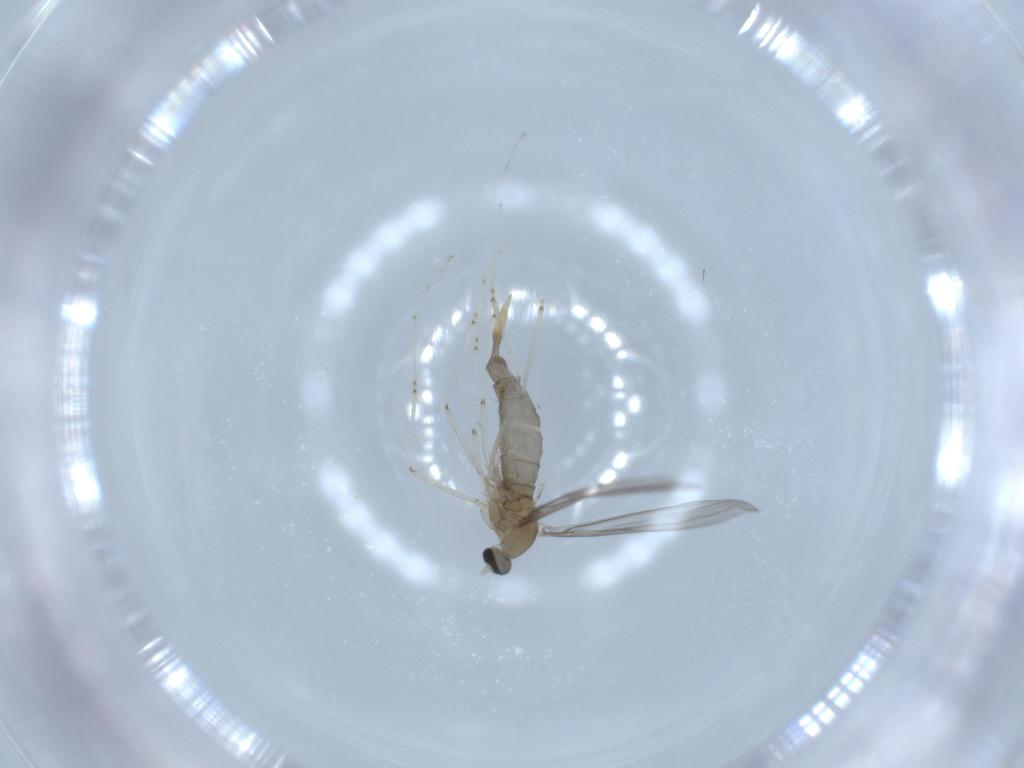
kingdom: Animalia
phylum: Arthropoda
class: Insecta
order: Diptera
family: Cecidomyiidae
